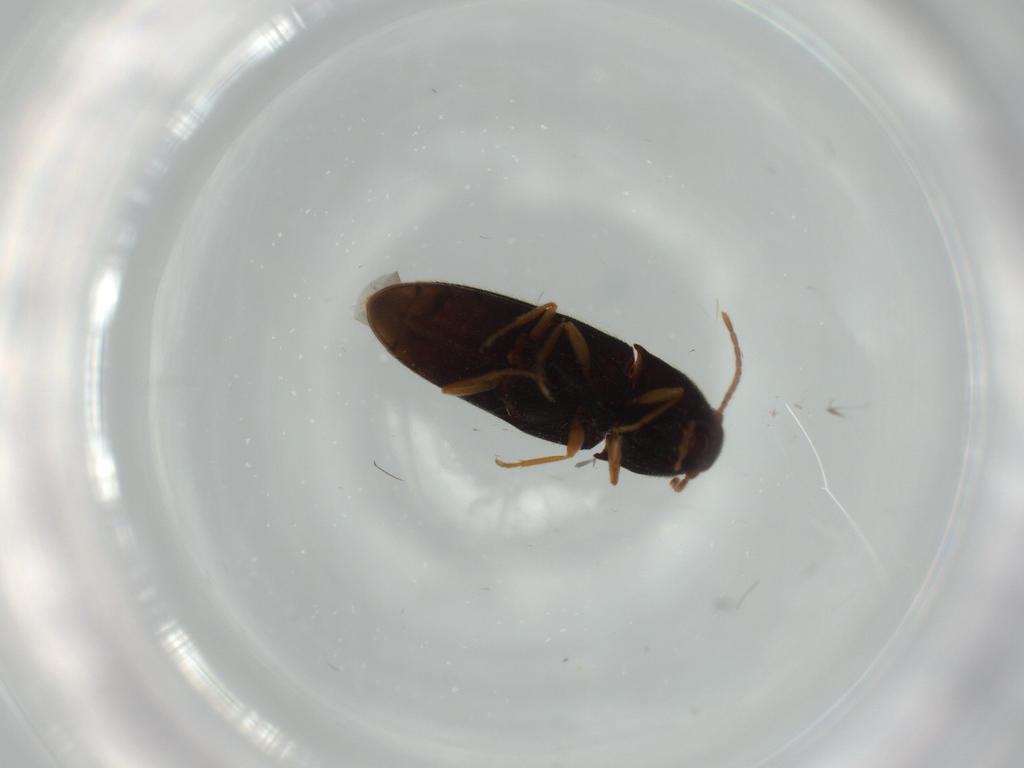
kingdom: Animalia
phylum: Arthropoda
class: Insecta
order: Coleoptera
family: Elateridae
